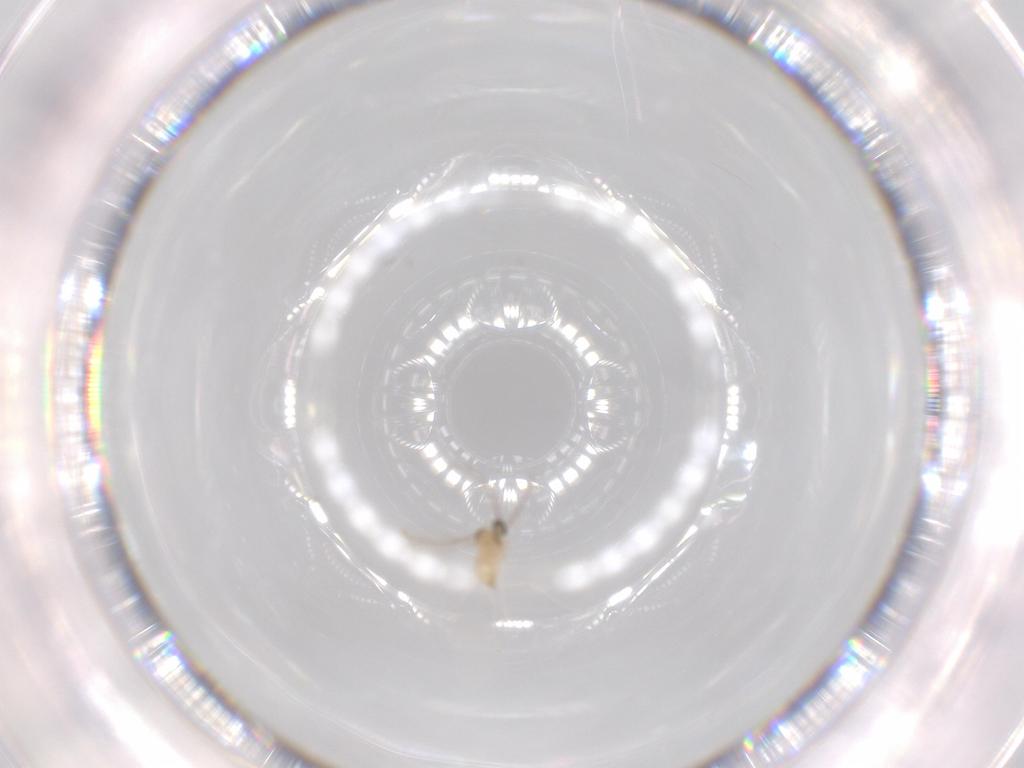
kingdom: Animalia
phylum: Arthropoda
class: Insecta
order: Diptera
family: Cecidomyiidae
